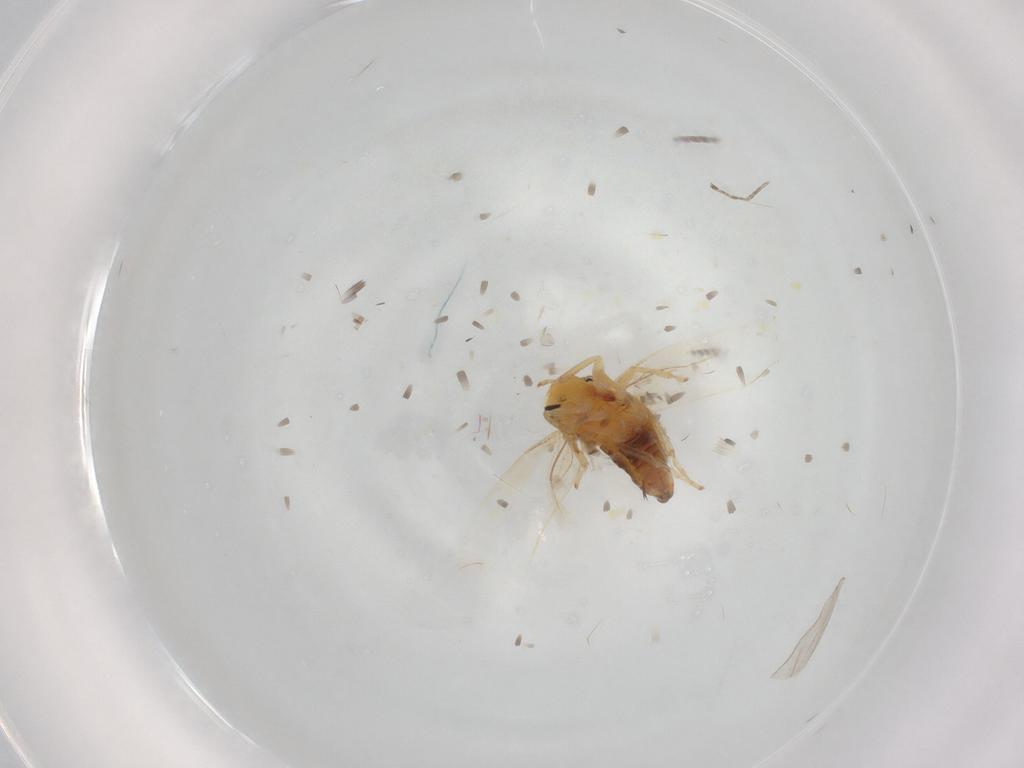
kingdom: Animalia
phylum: Arthropoda
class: Insecta
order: Hemiptera
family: Cicadellidae
